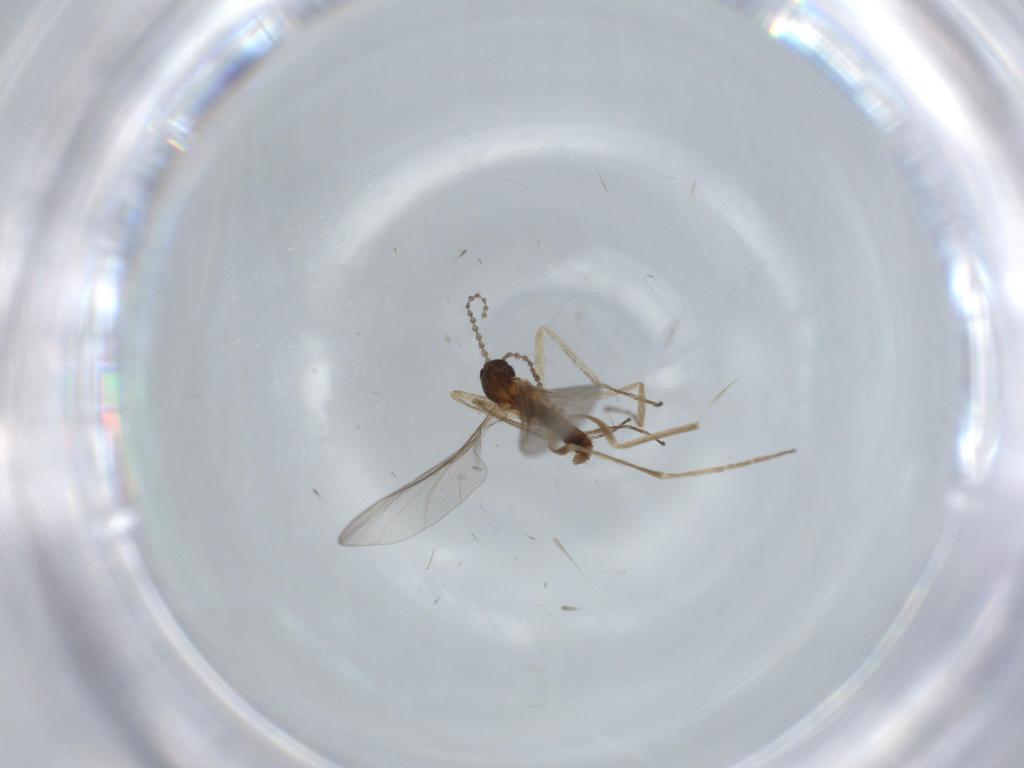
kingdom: Animalia
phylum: Arthropoda
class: Insecta
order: Diptera
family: Cecidomyiidae
